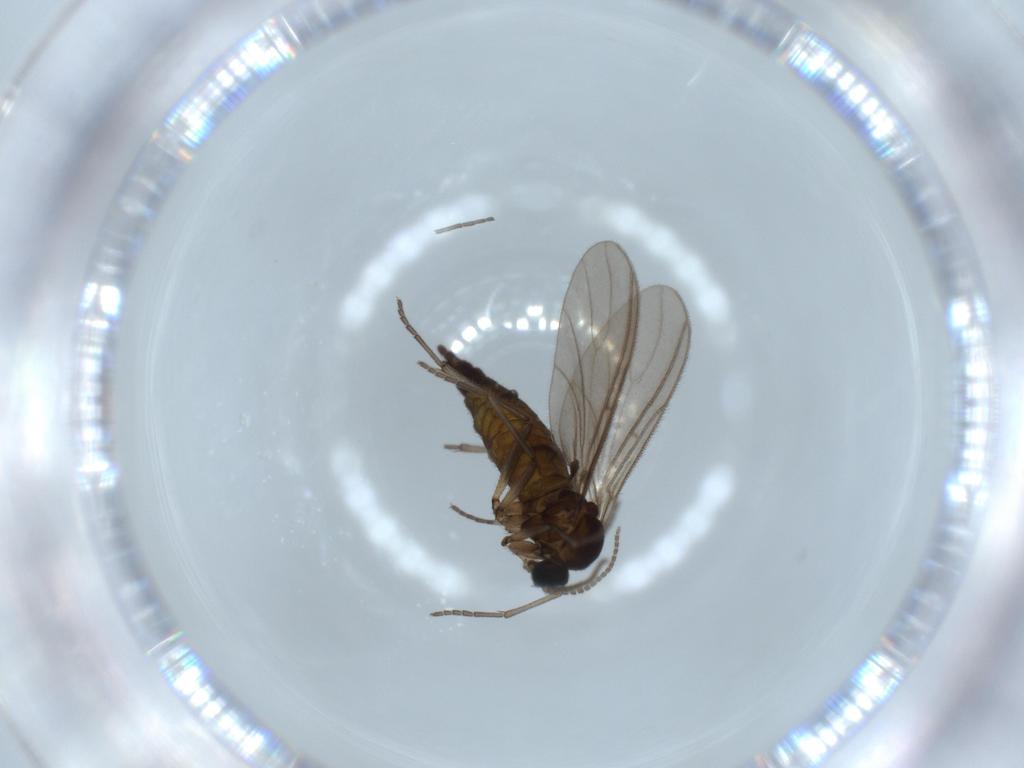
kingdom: Animalia
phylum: Arthropoda
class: Insecta
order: Diptera
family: Sciaridae
